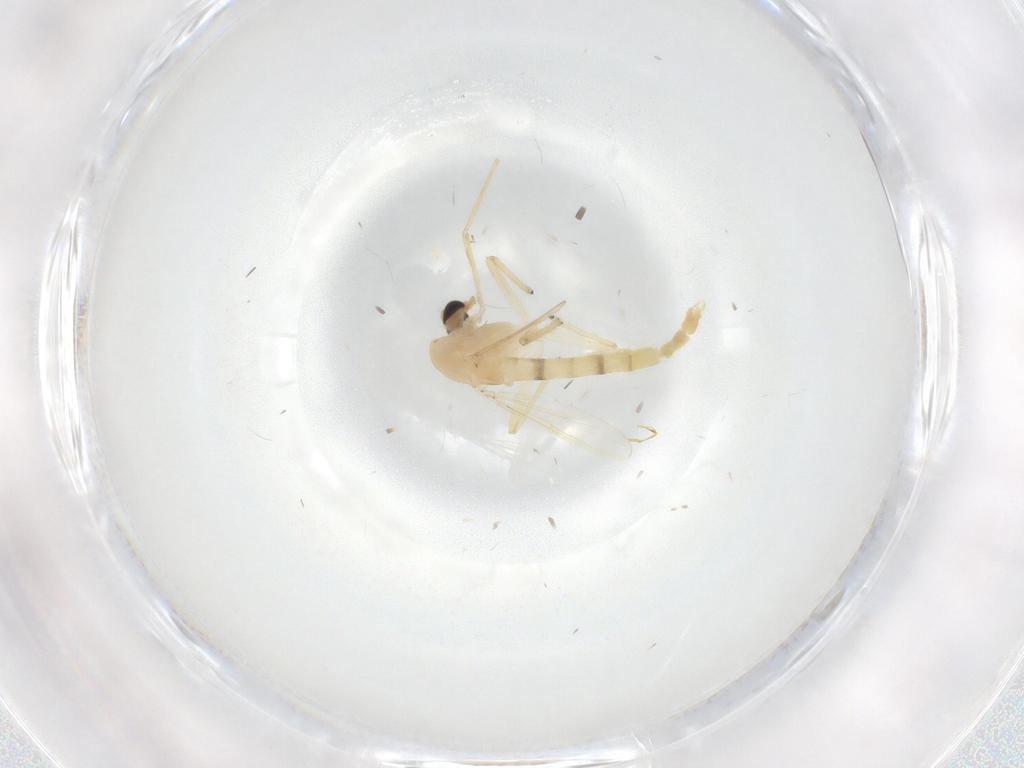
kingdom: Animalia
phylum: Arthropoda
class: Insecta
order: Diptera
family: Chironomidae
